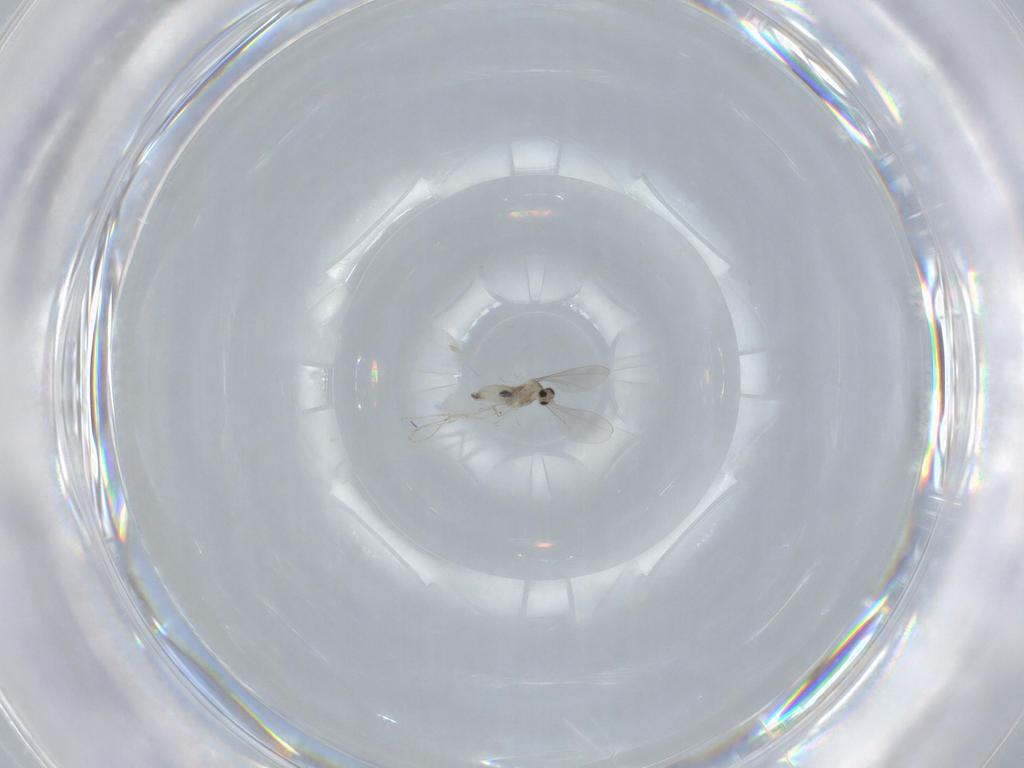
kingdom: Animalia
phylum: Arthropoda
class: Insecta
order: Diptera
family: Cecidomyiidae
